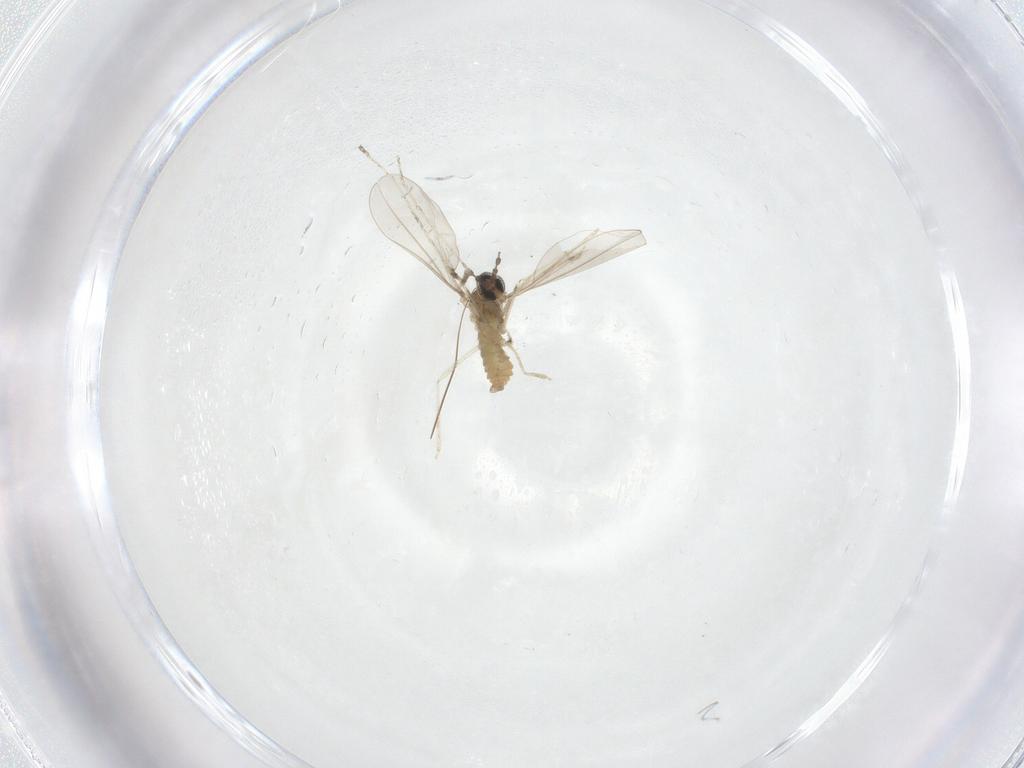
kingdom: Animalia
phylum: Arthropoda
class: Insecta
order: Diptera
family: Cecidomyiidae
